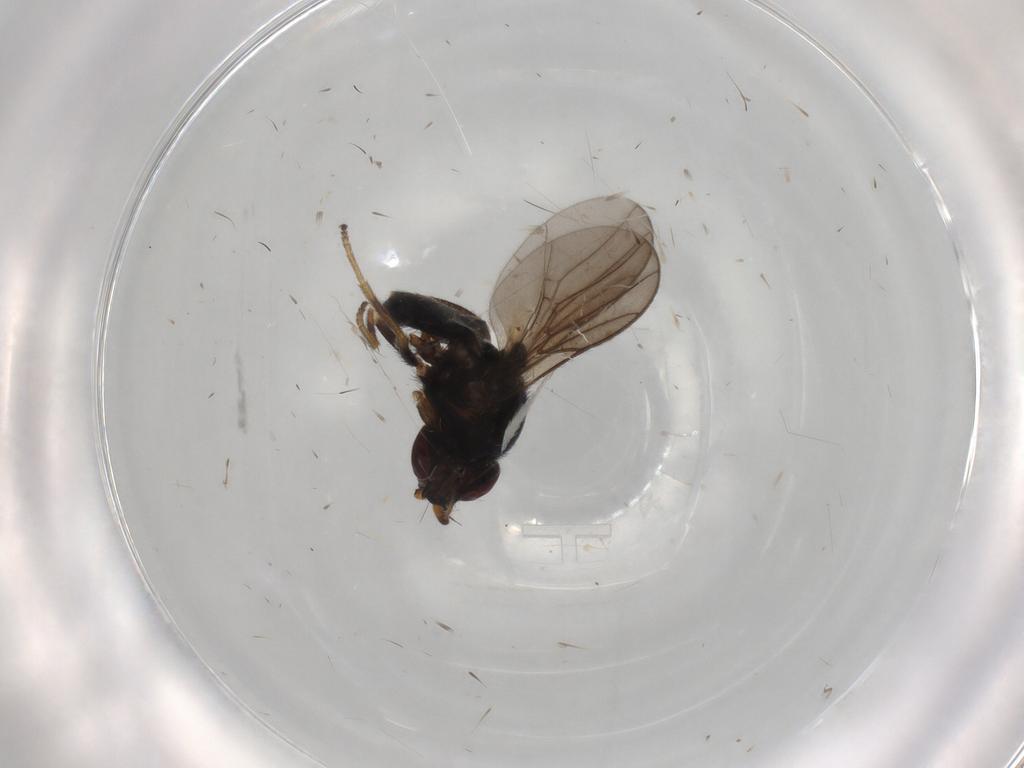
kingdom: Animalia
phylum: Arthropoda
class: Insecta
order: Diptera
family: Chloropidae
